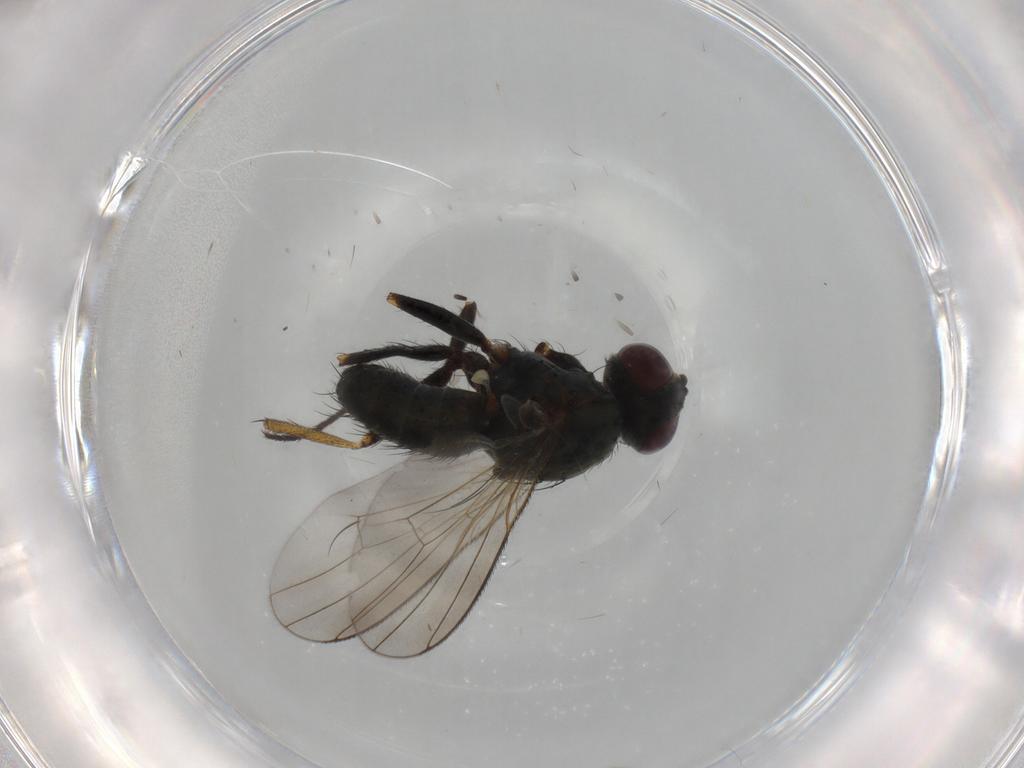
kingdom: Animalia
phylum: Arthropoda
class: Insecta
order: Diptera
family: Muscidae
